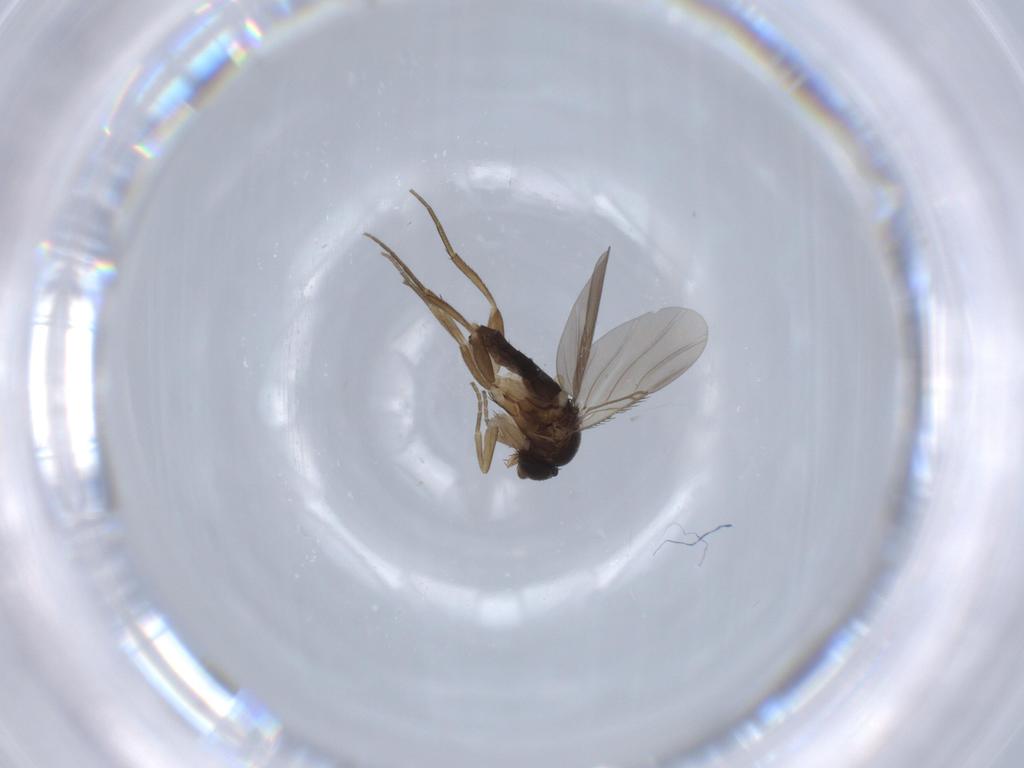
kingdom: Animalia
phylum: Arthropoda
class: Insecta
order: Diptera
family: Phoridae
